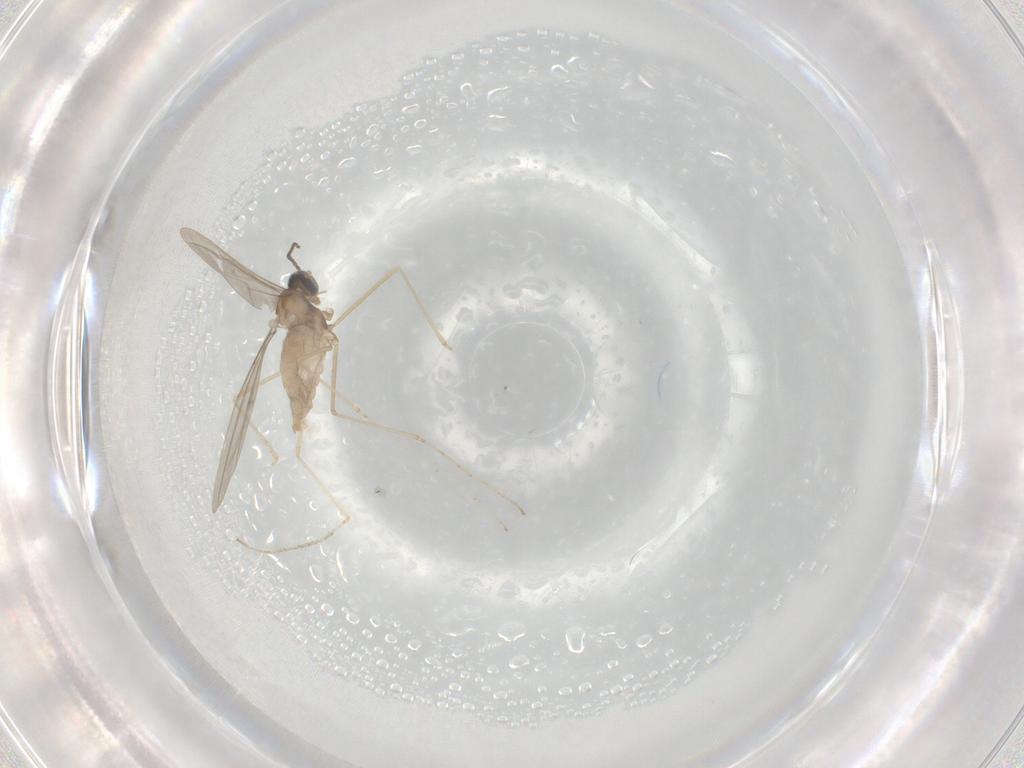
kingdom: Animalia
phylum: Arthropoda
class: Insecta
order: Diptera
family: Cecidomyiidae
